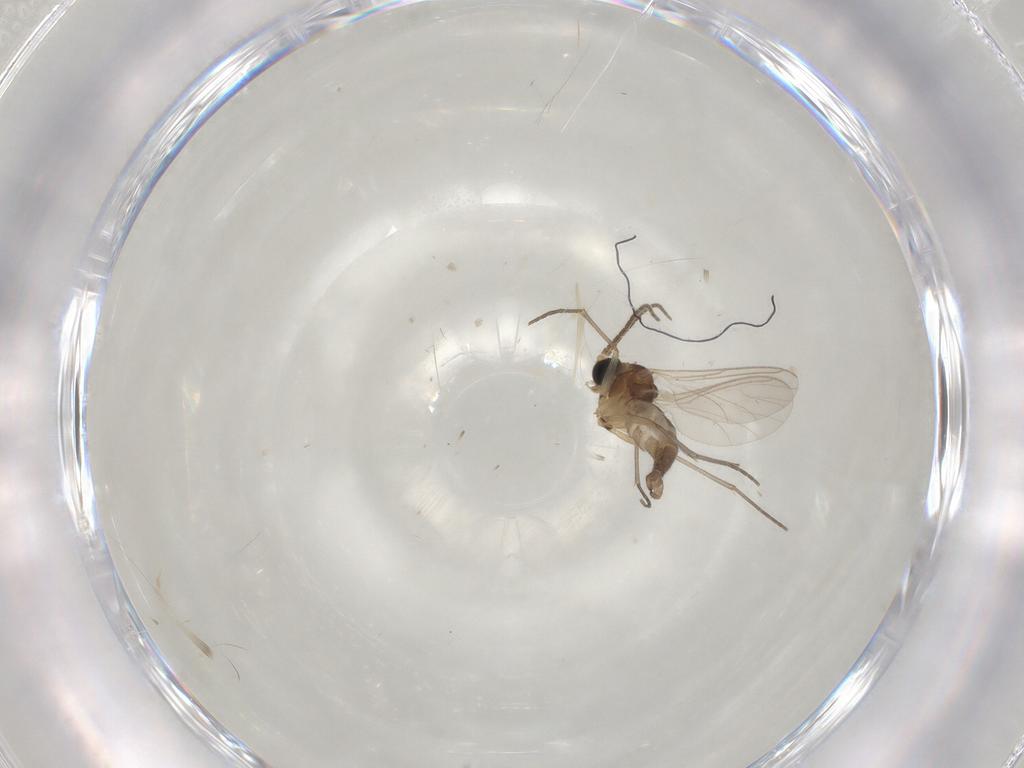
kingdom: Animalia
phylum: Arthropoda
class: Insecta
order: Diptera
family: Sciaridae
